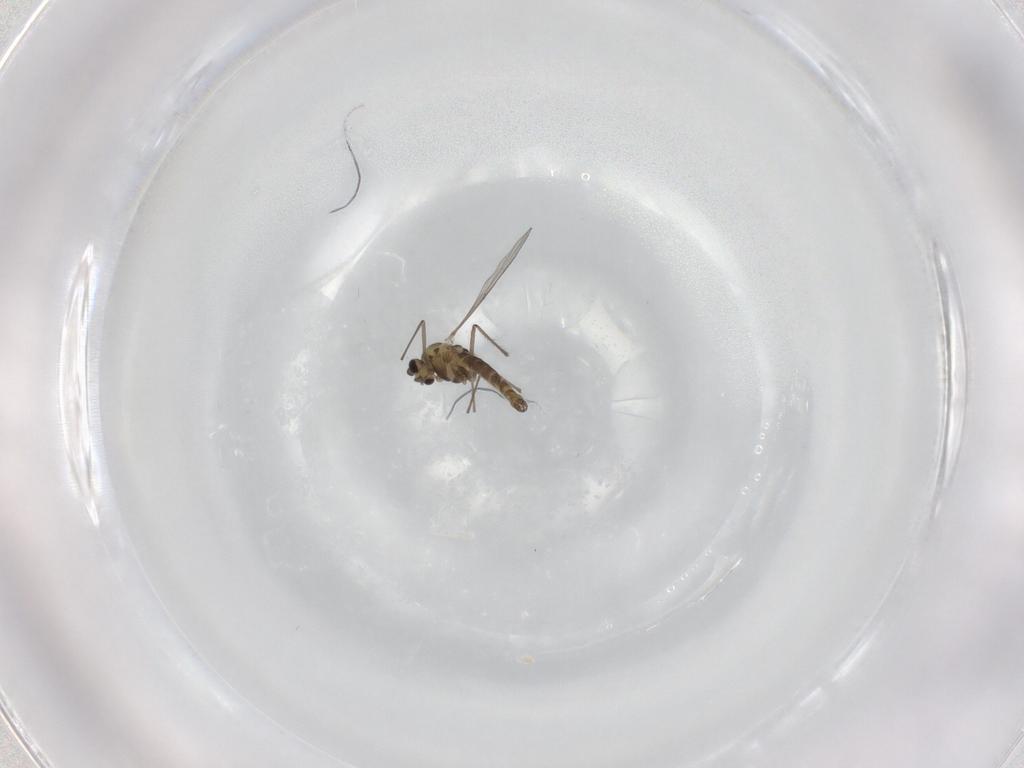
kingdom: Animalia
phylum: Arthropoda
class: Insecta
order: Diptera
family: Chironomidae
